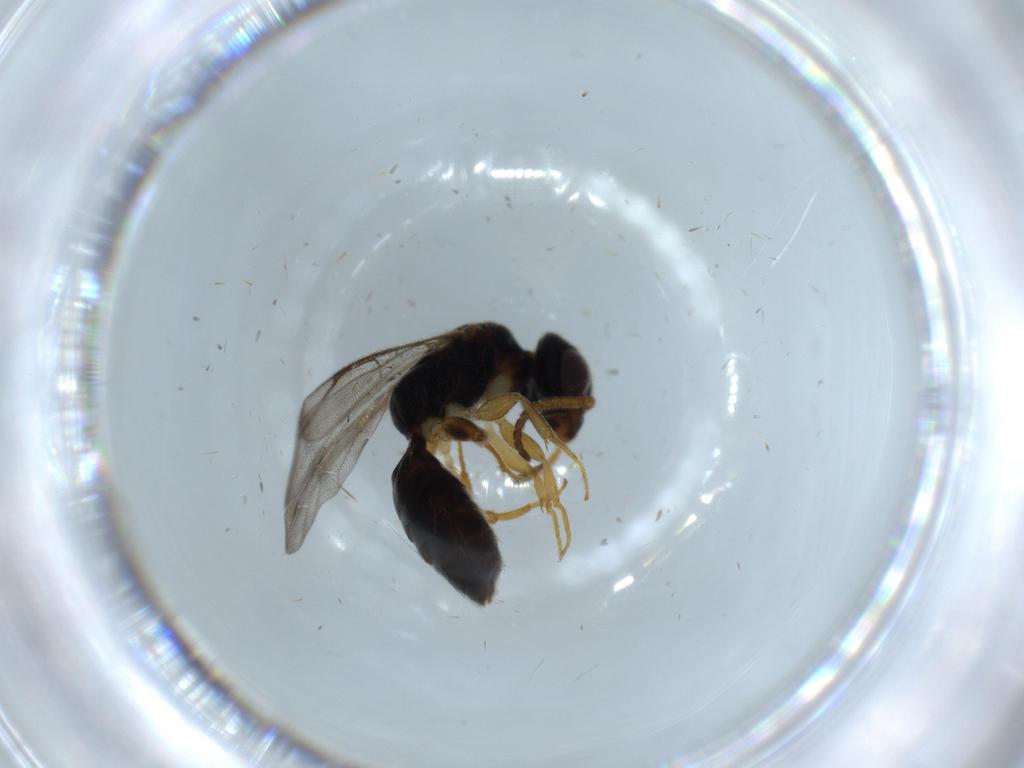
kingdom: Animalia
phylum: Arthropoda
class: Insecta
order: Hymenoptera
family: Bethylidae
